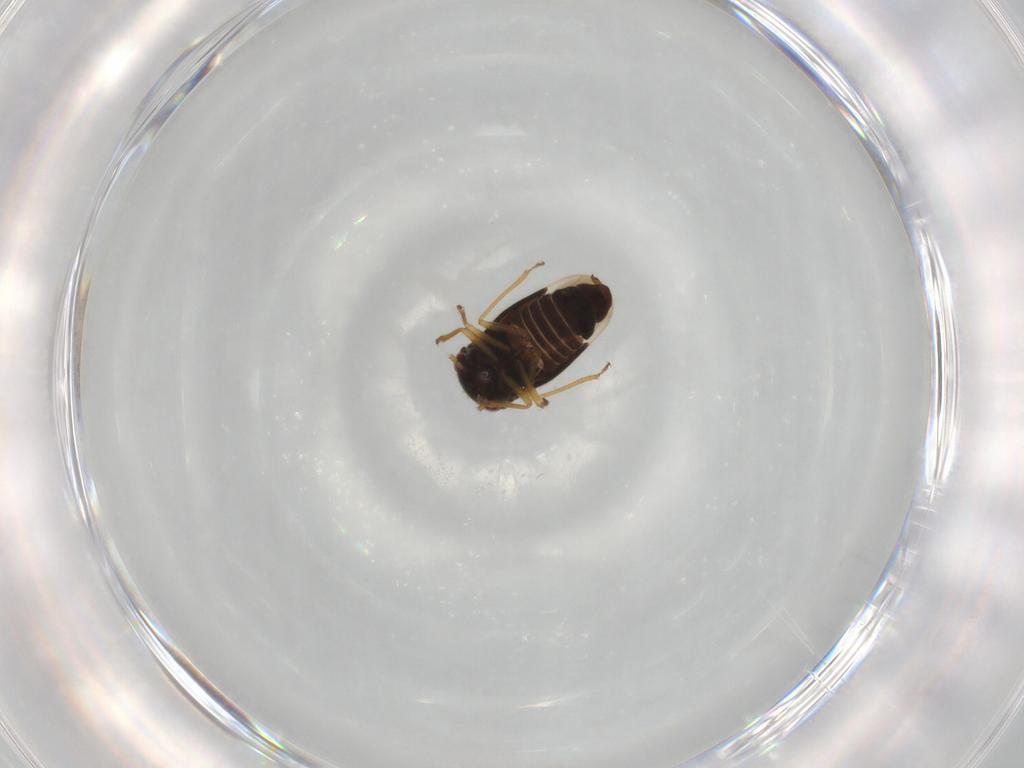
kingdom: Animalia
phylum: Arthropoda
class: Insecta
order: Hemiptera
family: Schizopteridae
